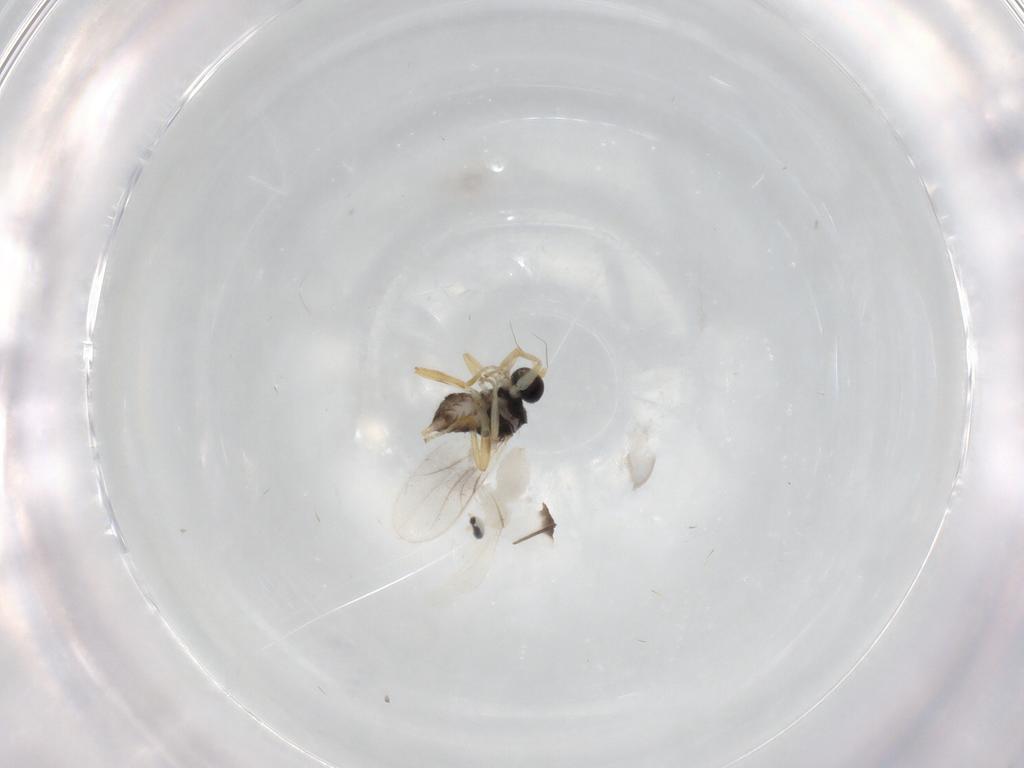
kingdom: Animalia
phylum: Arthropoda
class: Insecta
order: Diptera
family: Hybotidae
